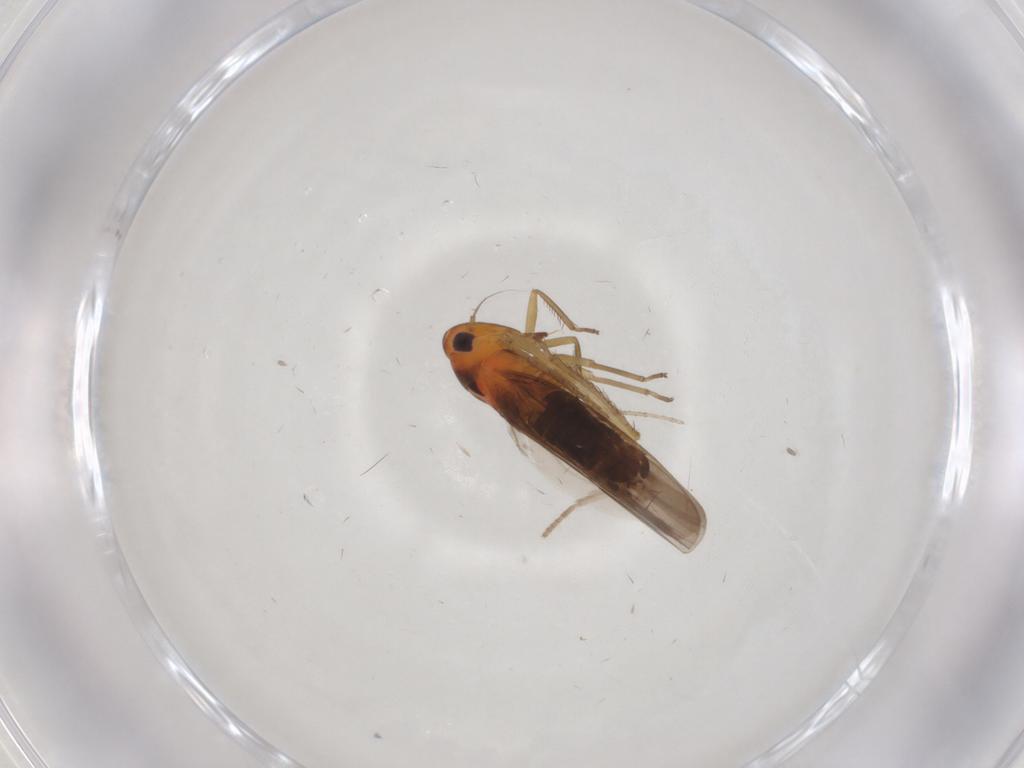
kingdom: Animalia
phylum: Arthropoda
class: Insecta
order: Hemiptera
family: Cicadellidae
